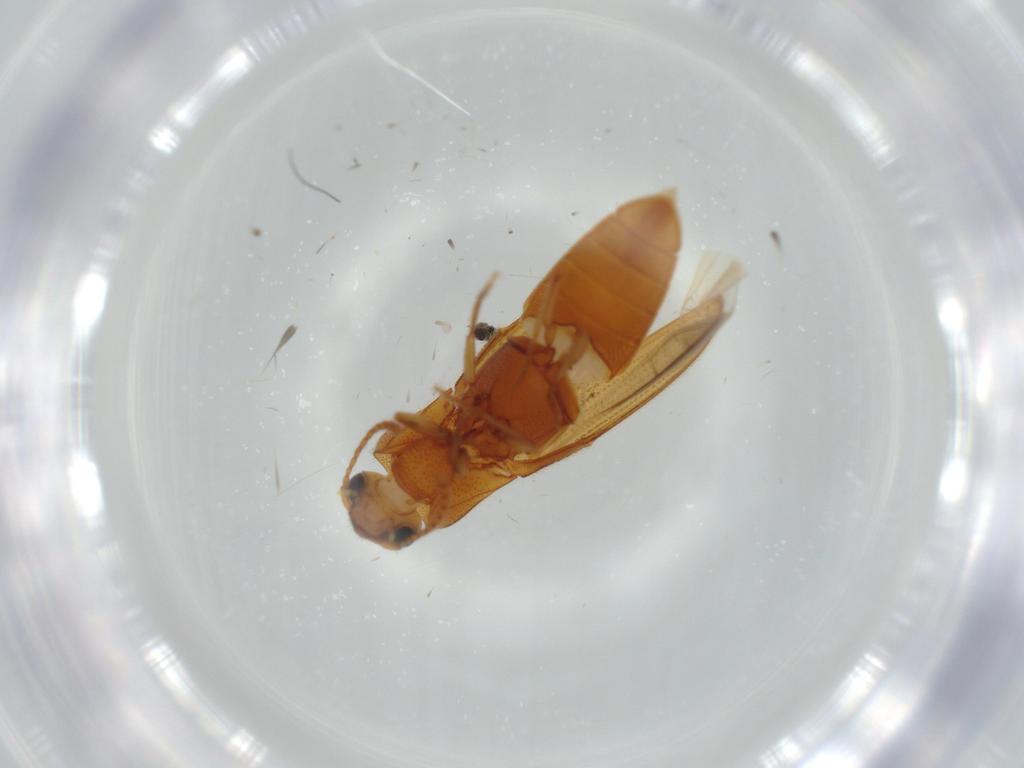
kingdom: Animalia
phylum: Arthropoda
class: Insecta
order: Coleoptera
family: Elateridae
